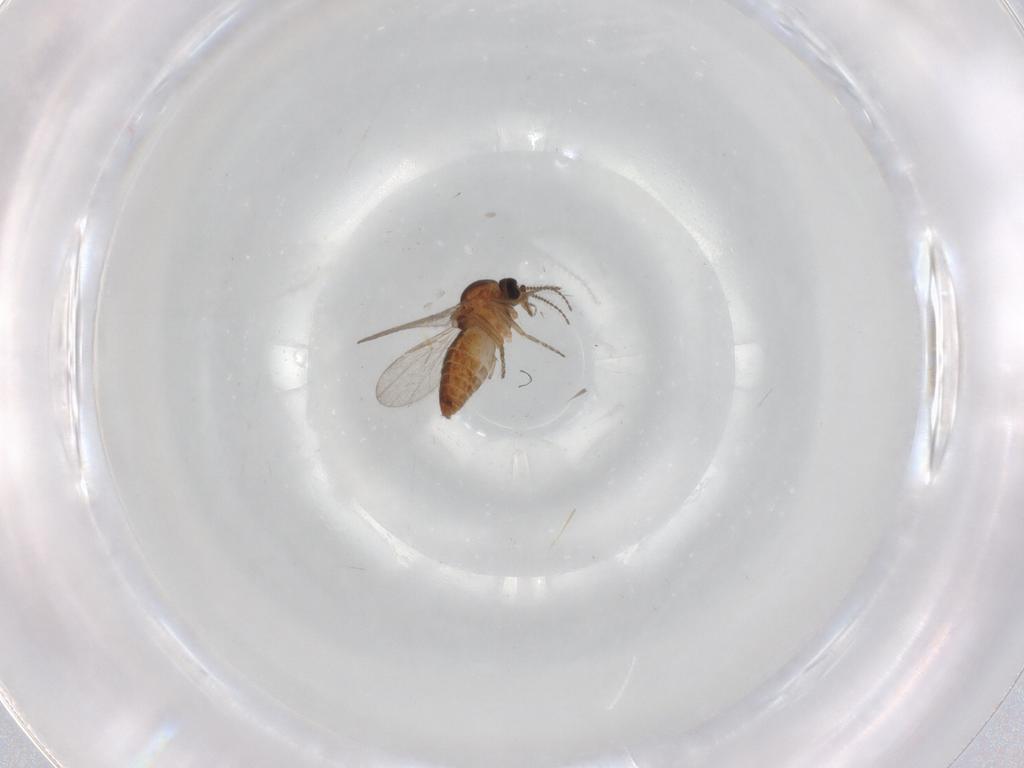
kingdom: Animalia
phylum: Arthropoda
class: Insecta
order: Diptera
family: Ceratopogonidae
